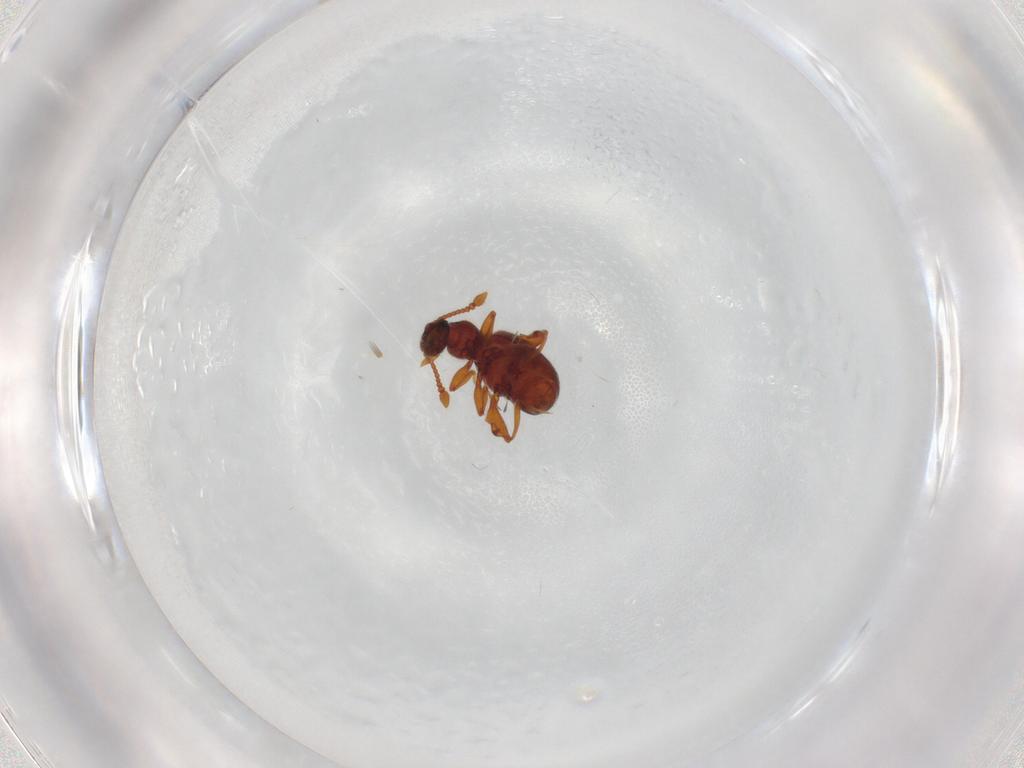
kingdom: Animalia
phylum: Arthropoda
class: Insecta
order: Coleoptera
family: Staphylinidae
